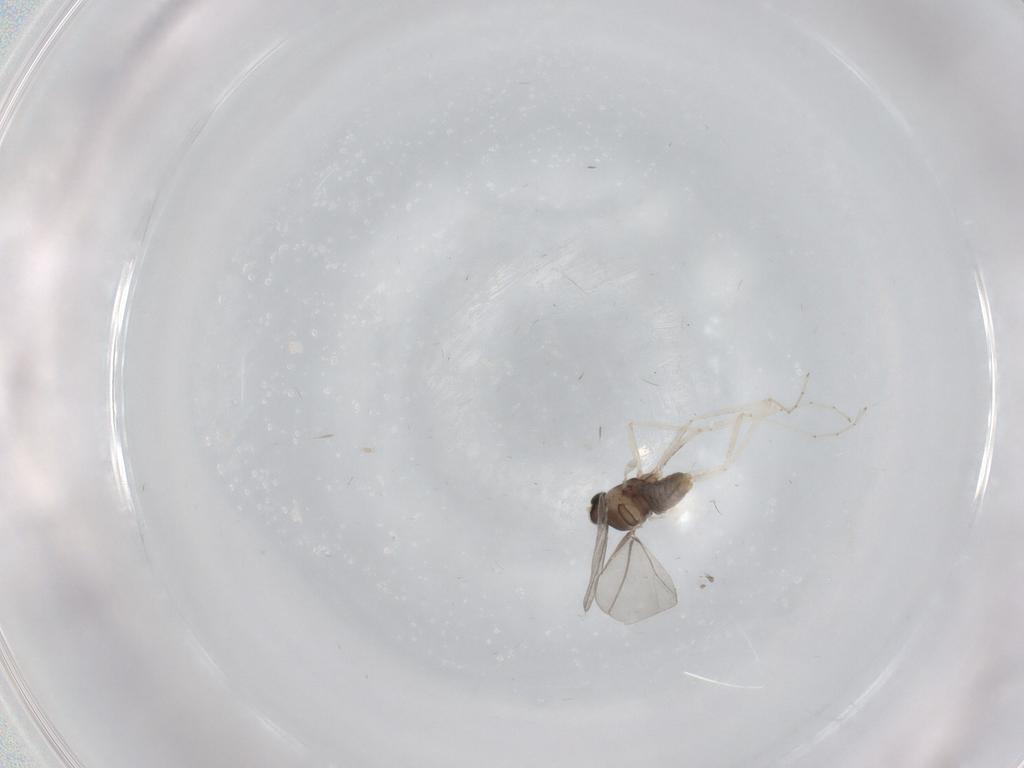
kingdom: Animalia
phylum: Arthropoda
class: Insecta
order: Diptera
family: Cecidomyiidae
